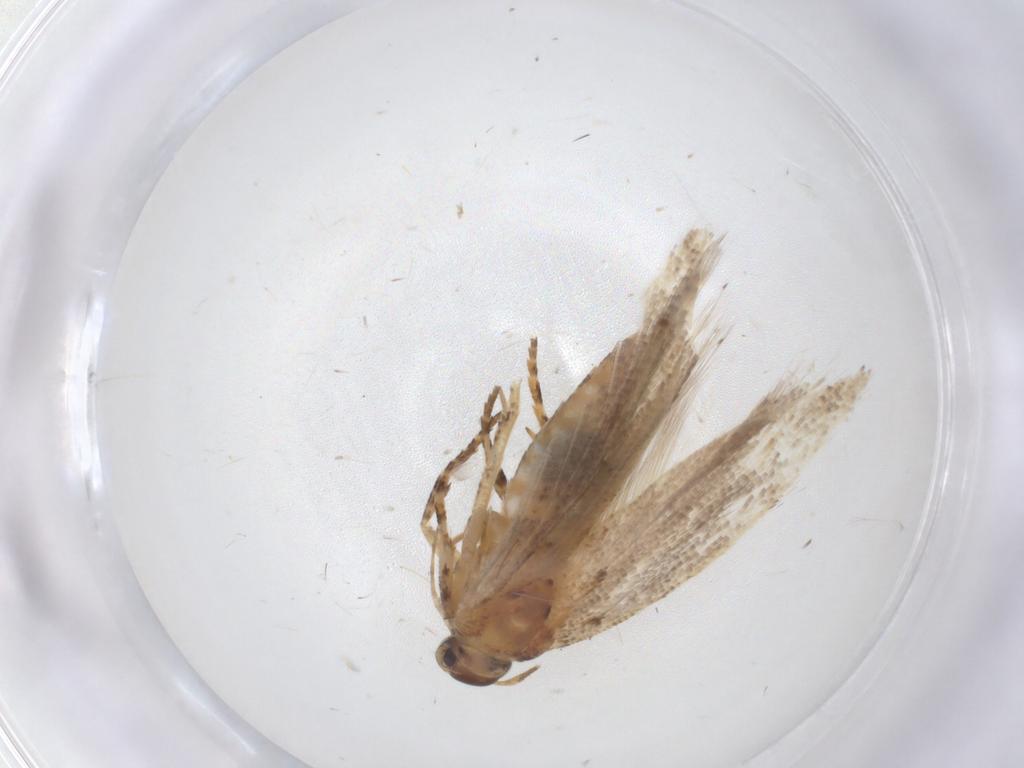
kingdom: Animalia
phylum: Arthropoda
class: Insecta
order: Lepidoptera
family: Gelechiidae
